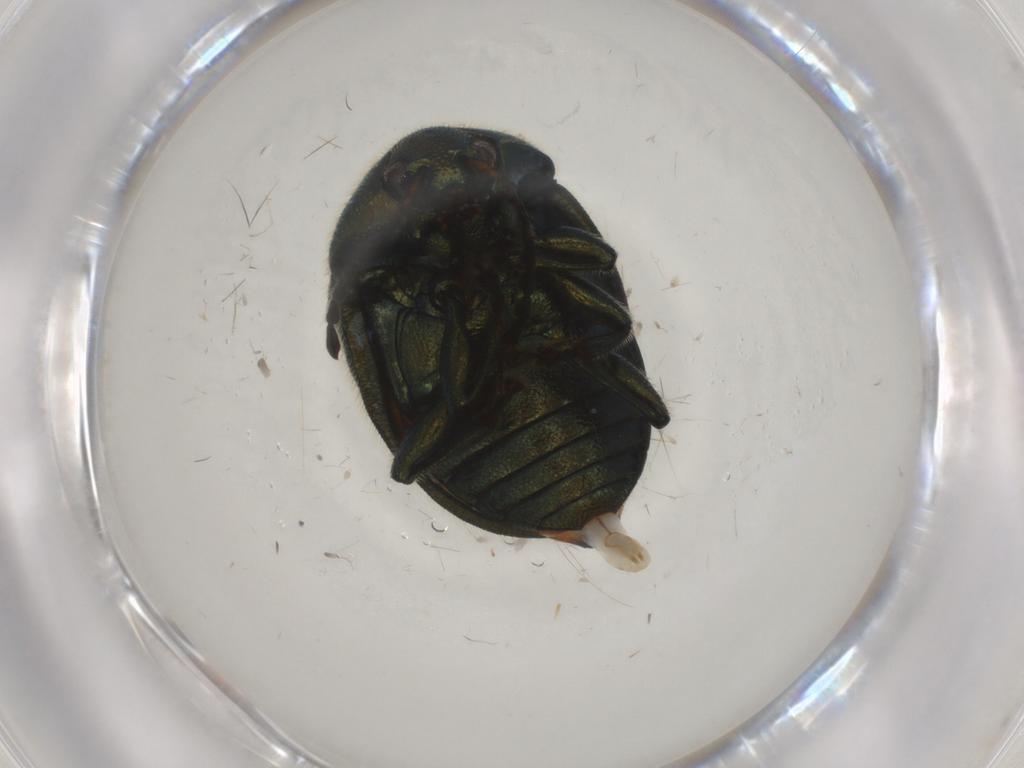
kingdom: Animalia
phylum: Arthropoda
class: Insecta
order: Coleoptera
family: Chrysomelidae
